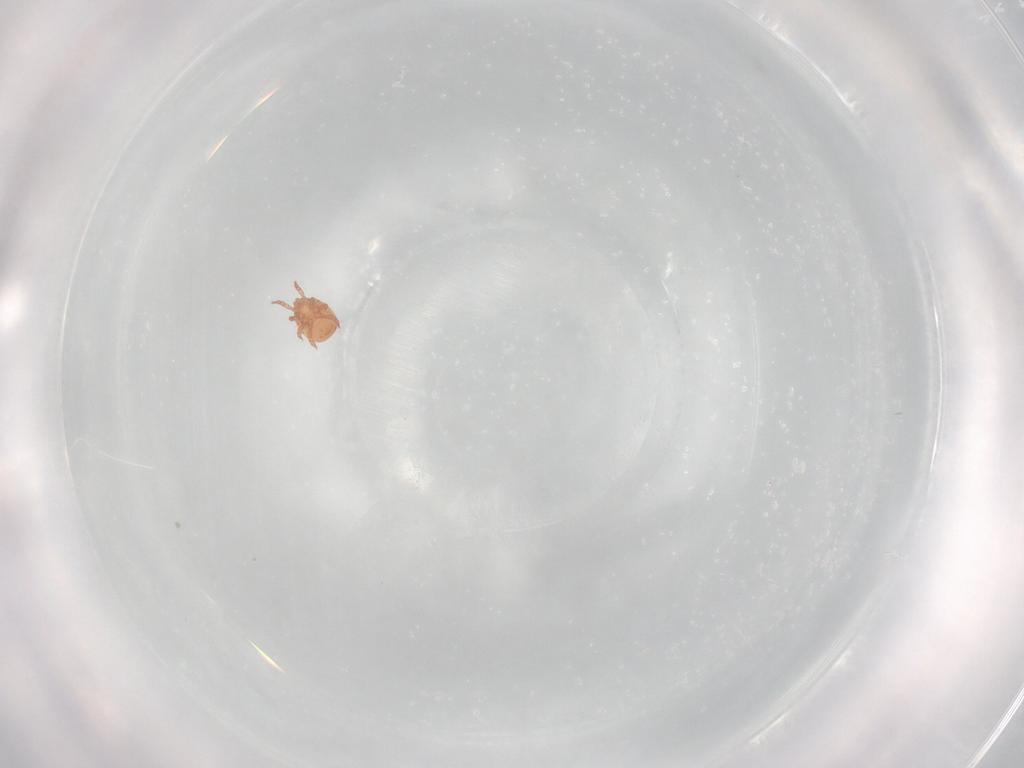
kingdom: Animalia
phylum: Arthropoda
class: Arachnida
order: Mesostigmata
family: Zerconidae
